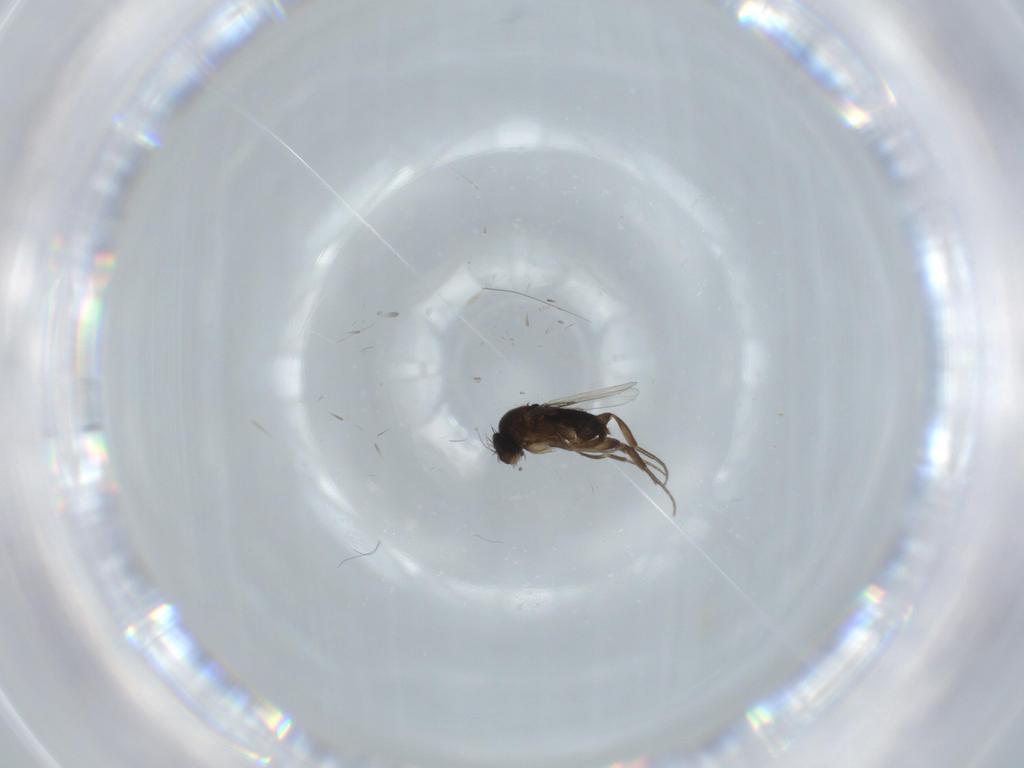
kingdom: Animalia
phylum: Arthropoda
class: Insecta
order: Diptera
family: Phoridae
